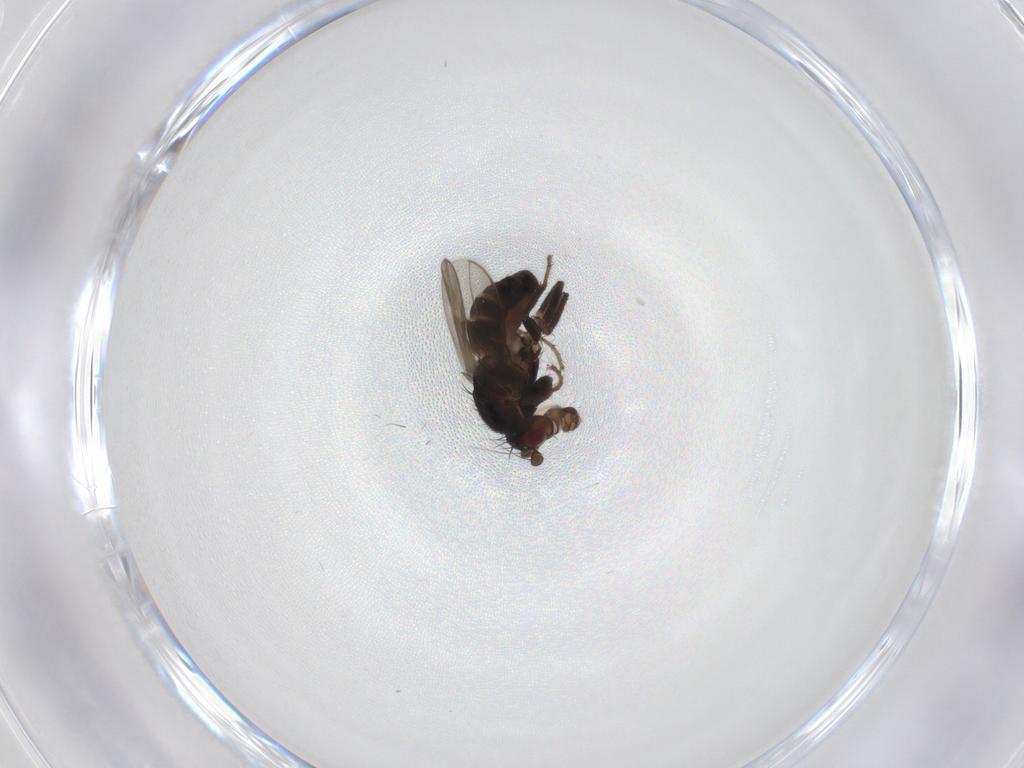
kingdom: Animalia
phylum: Arthropoda
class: Insecta
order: Diptera
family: Sphaeroceridae
